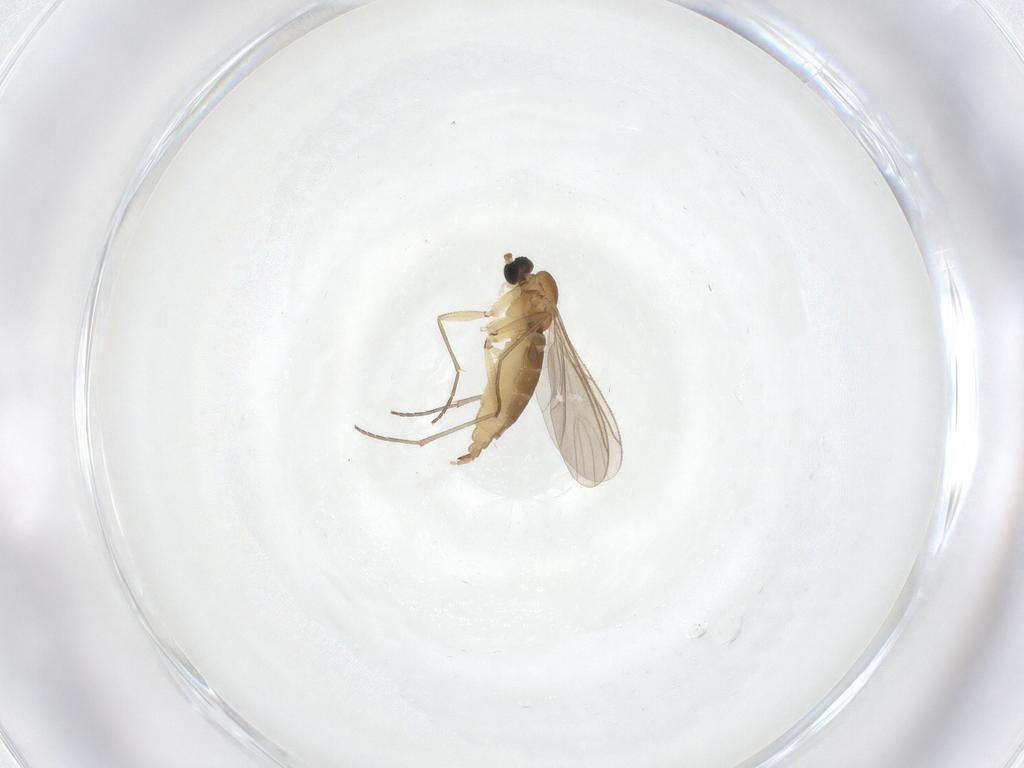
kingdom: Animalia
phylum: Arthropoda
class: Insecta
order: Diptera
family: Sciaridae
